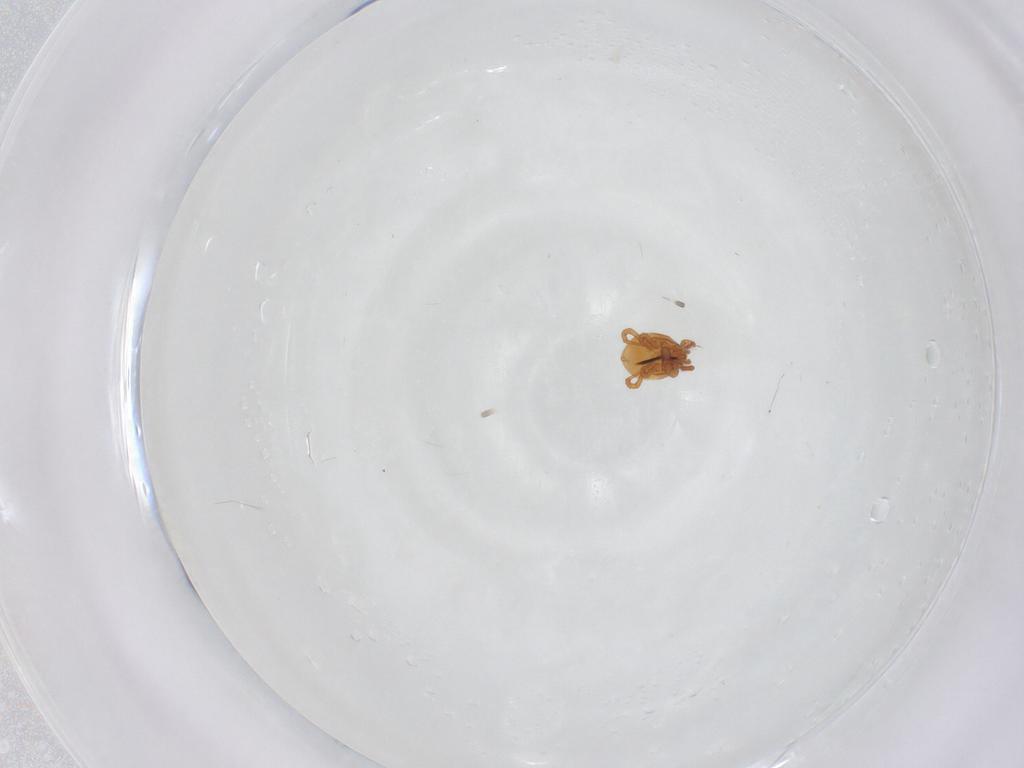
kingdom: Animalia
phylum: Arthropoda
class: Arachnida
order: Mesostigmata
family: Parasitidae
